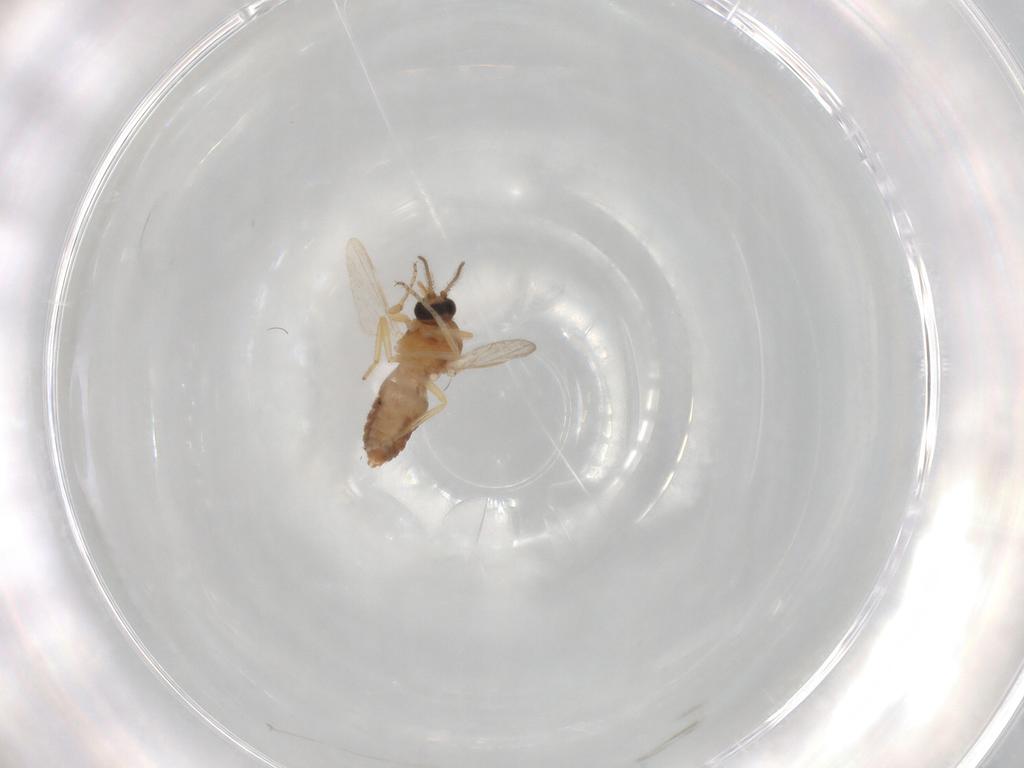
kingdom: Animalia
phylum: Arthropoda
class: Insecta
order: Diptera
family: Ceratopogonidae
